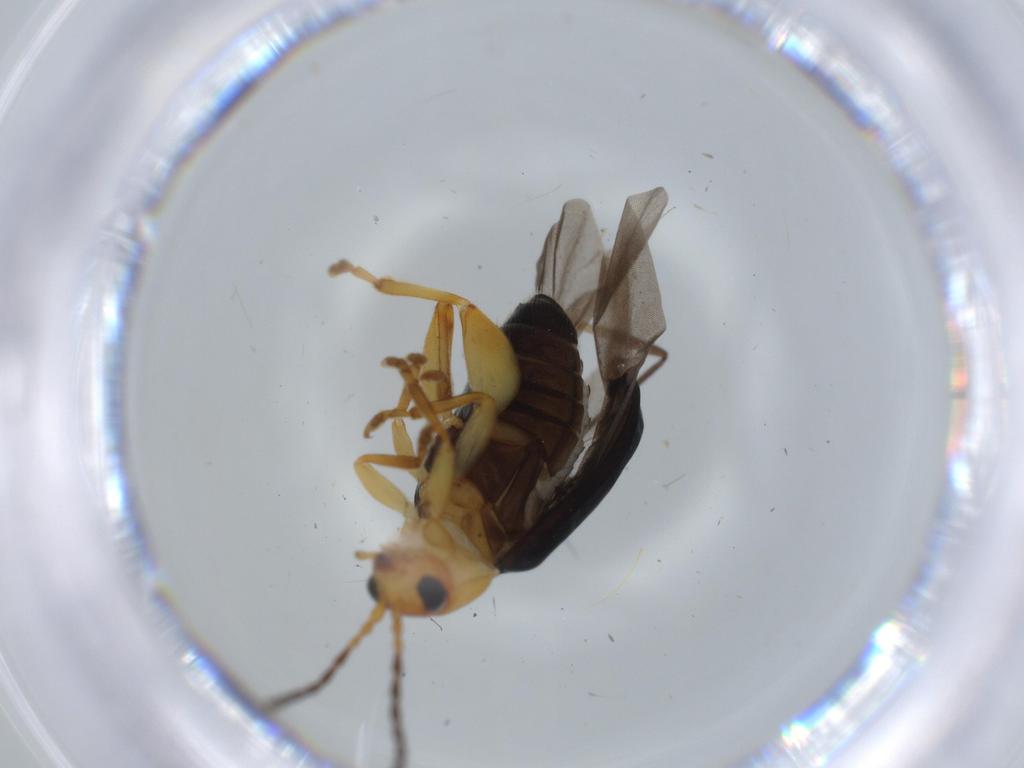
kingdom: Animalia
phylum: Arthropoda
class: Insecta
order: Coleoptera
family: Chrysomelidae
